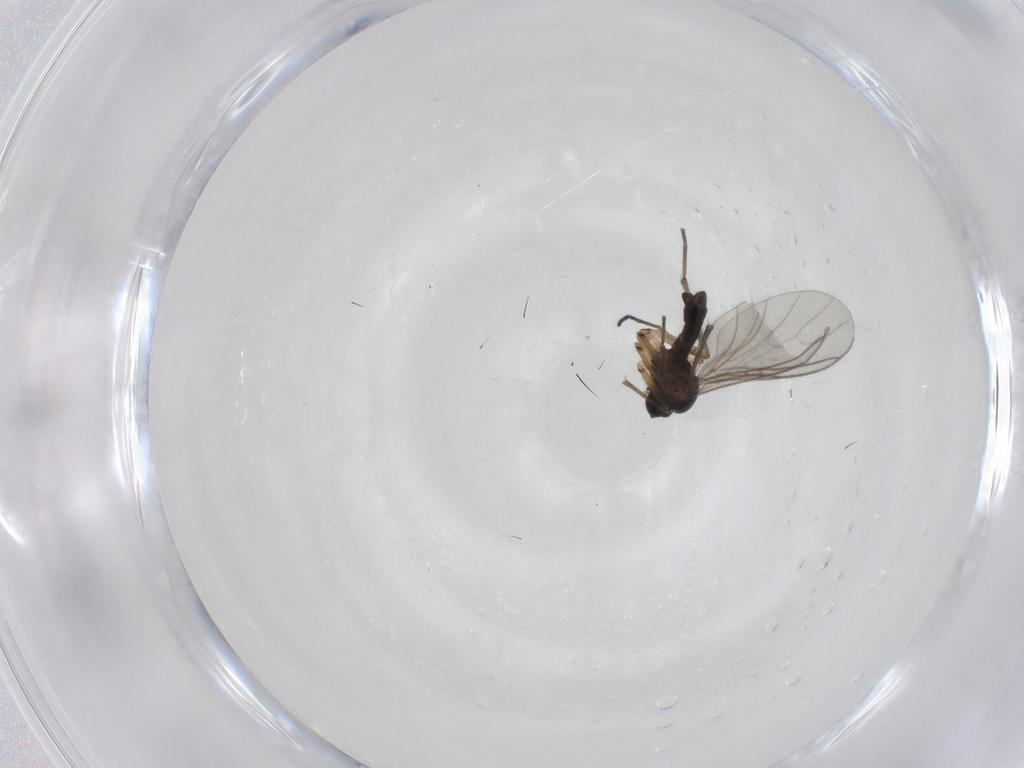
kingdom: Animalia
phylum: Arthropoda
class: Insecta
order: Diptera
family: Sciaridae
